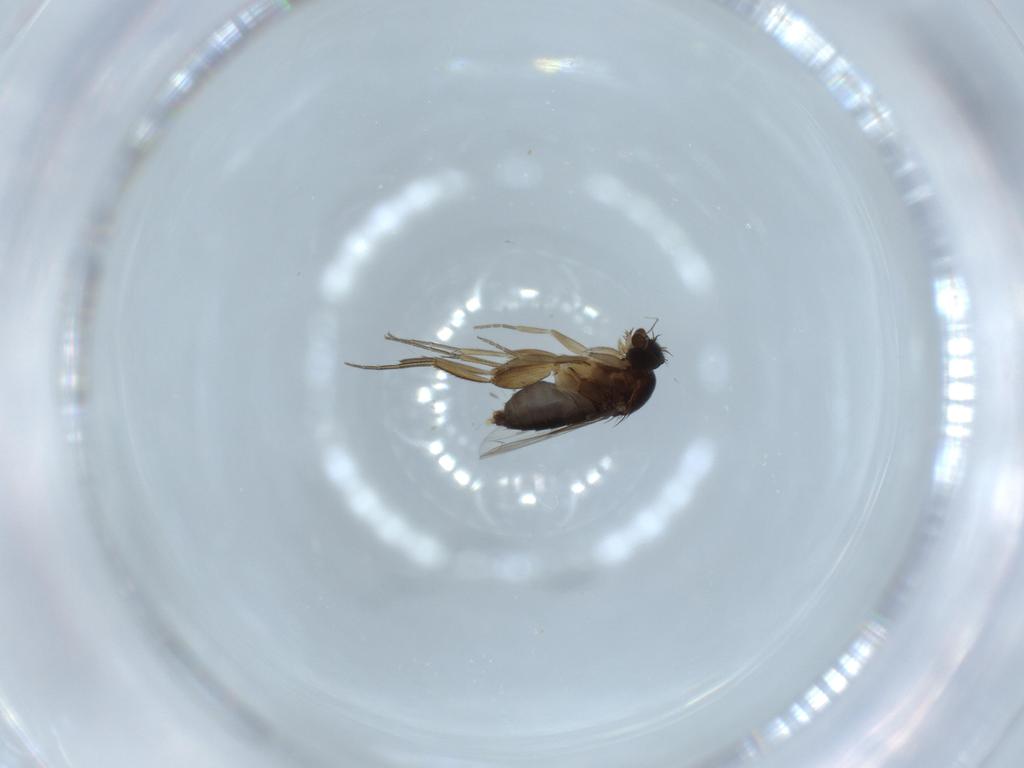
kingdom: Animalia
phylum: Arthropoda
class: Insecta
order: Diptera
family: Phoridae
